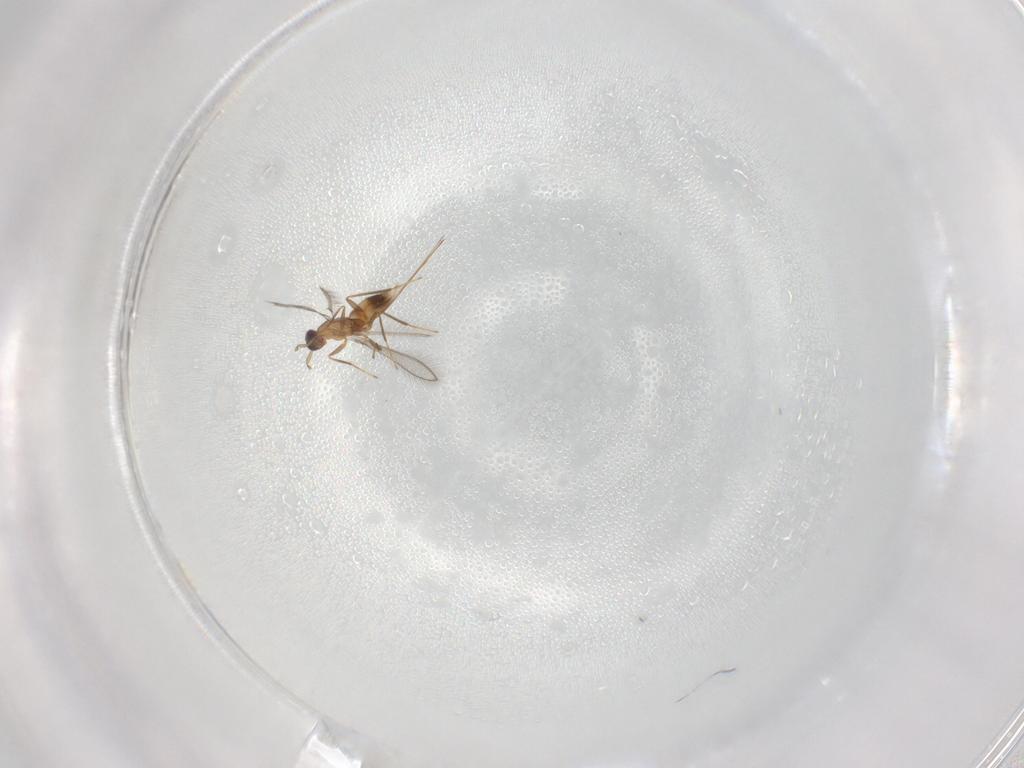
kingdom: Animalia
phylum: Arthropoda
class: Insecta
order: Hymenoptera
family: Mymaridae
